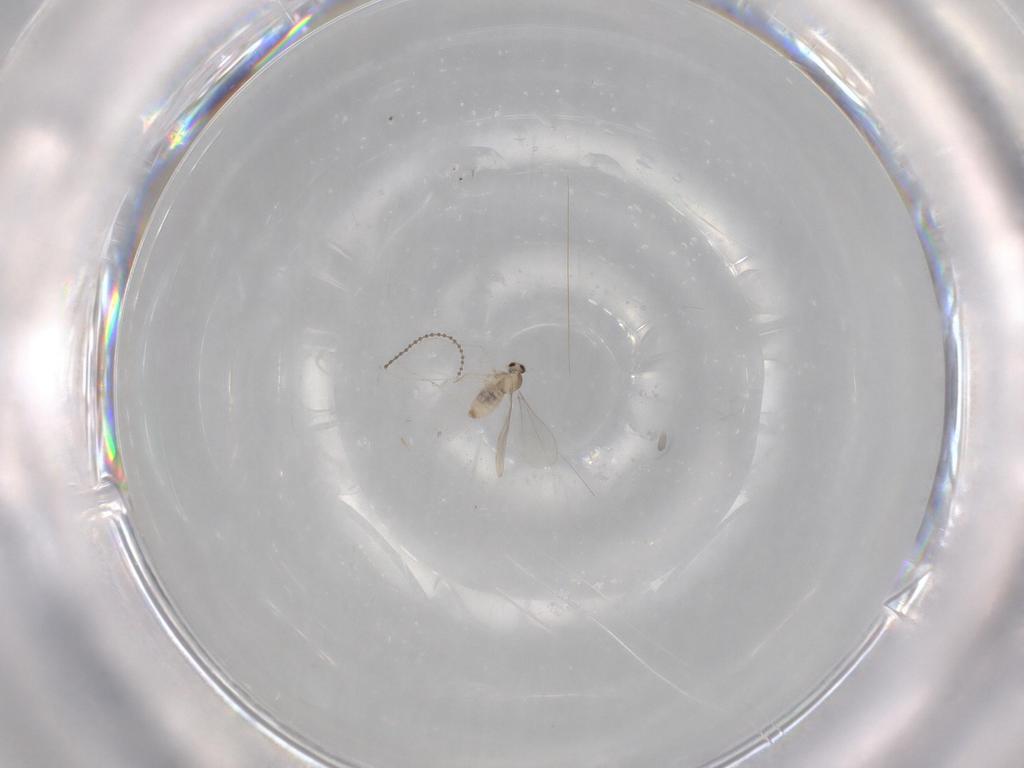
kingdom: Animalia
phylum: Arthropoda
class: Insecta
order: Diptera
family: Cecidomyiidae
